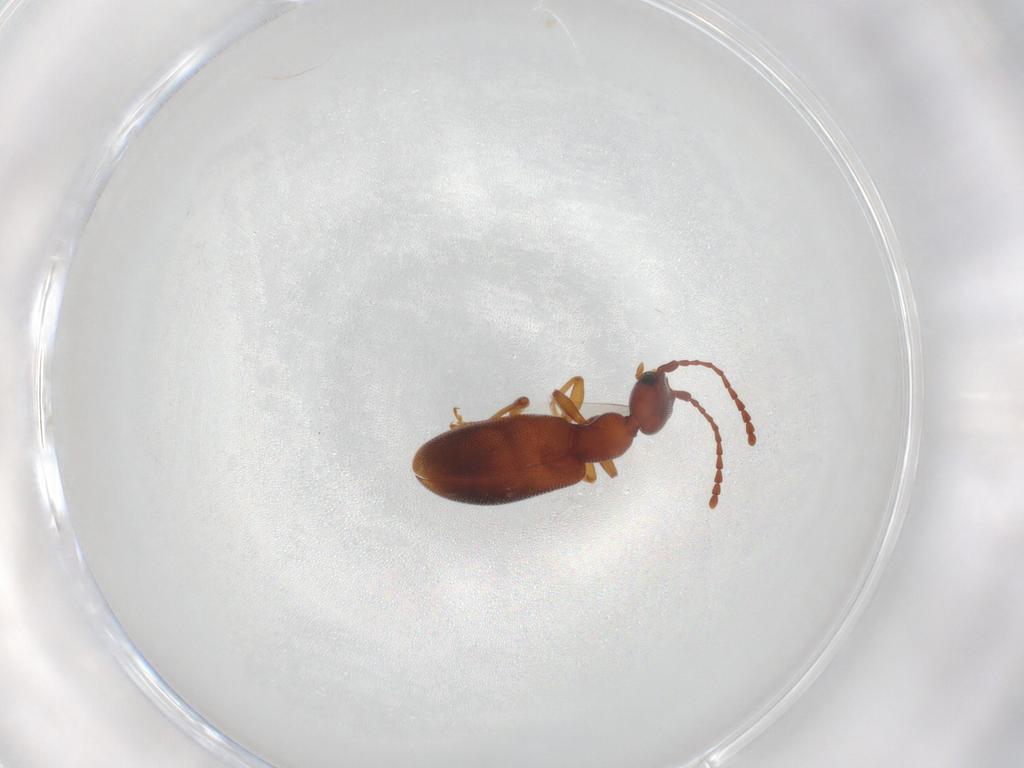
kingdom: Animalia
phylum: Arthropoda
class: Insecta
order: Coleoptera
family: Anthicidae
